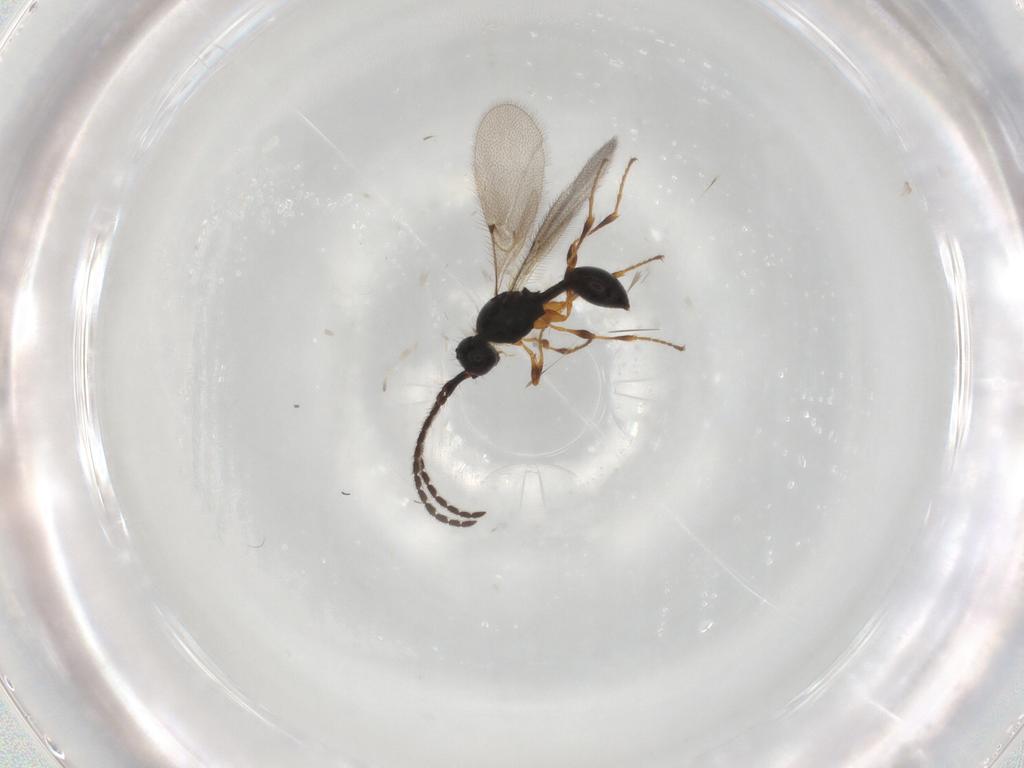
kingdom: Animalia
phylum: Arthropoda
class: Insecta
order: Hymenoptera
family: Diapriidae
